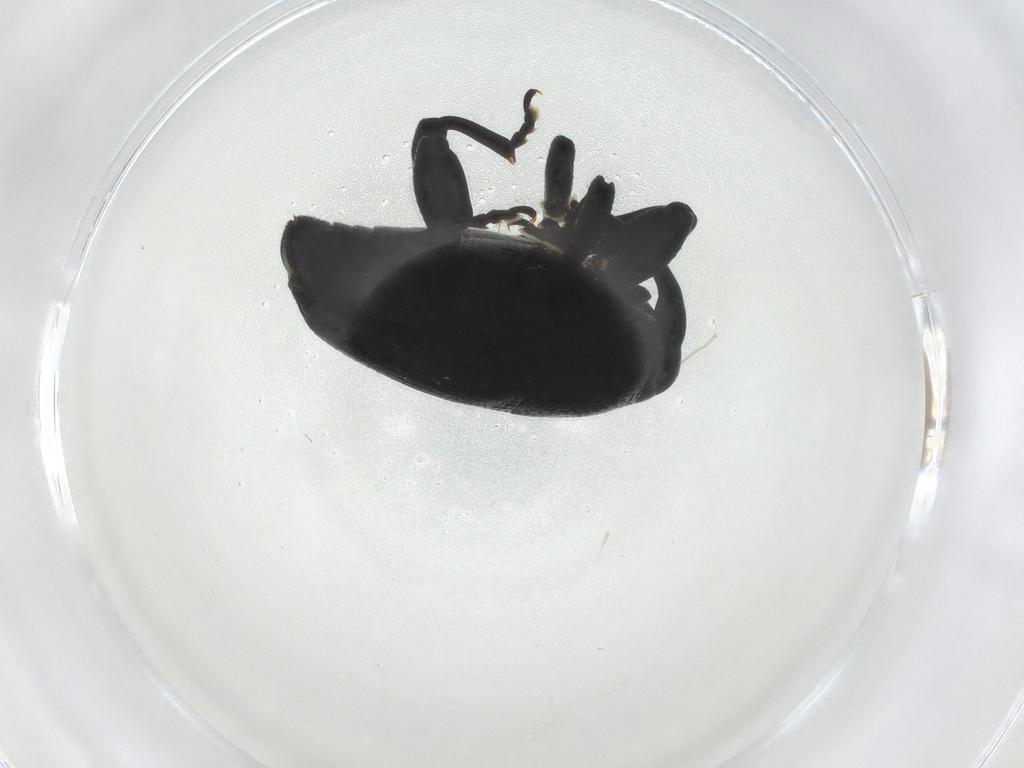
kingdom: Animalia
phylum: Arthropoda
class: Insecta
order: Coleoptera
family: Curculionidae
